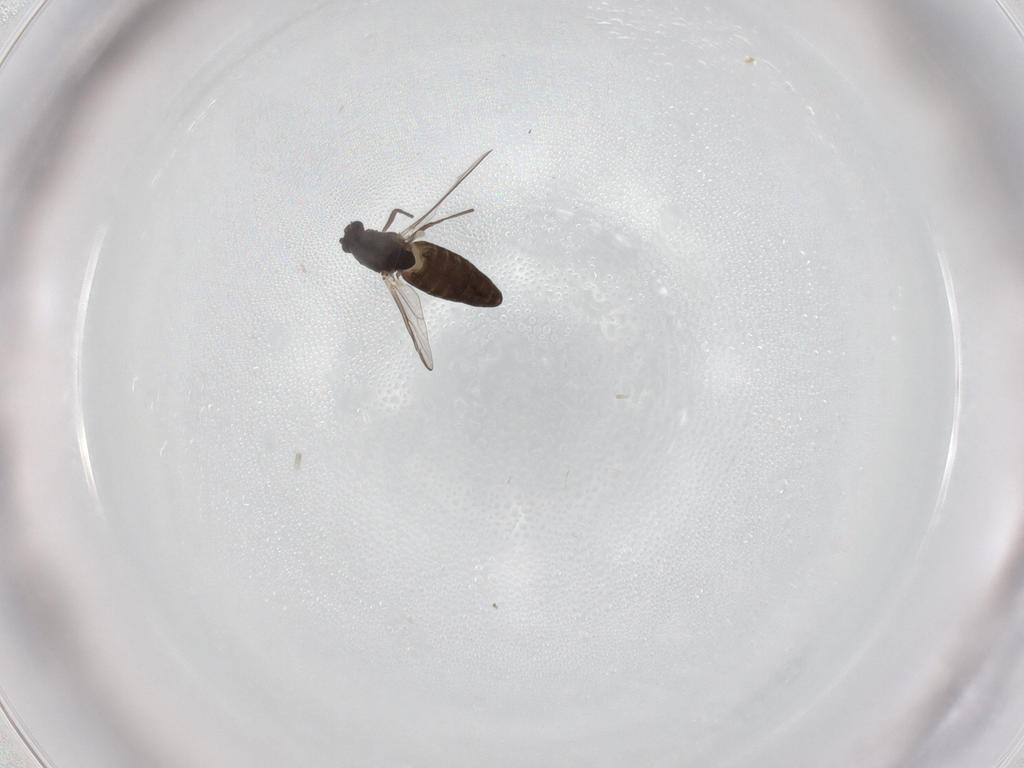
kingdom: Animalia
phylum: Arthropoda
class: Insecta
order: Diptera
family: Chironomidae
